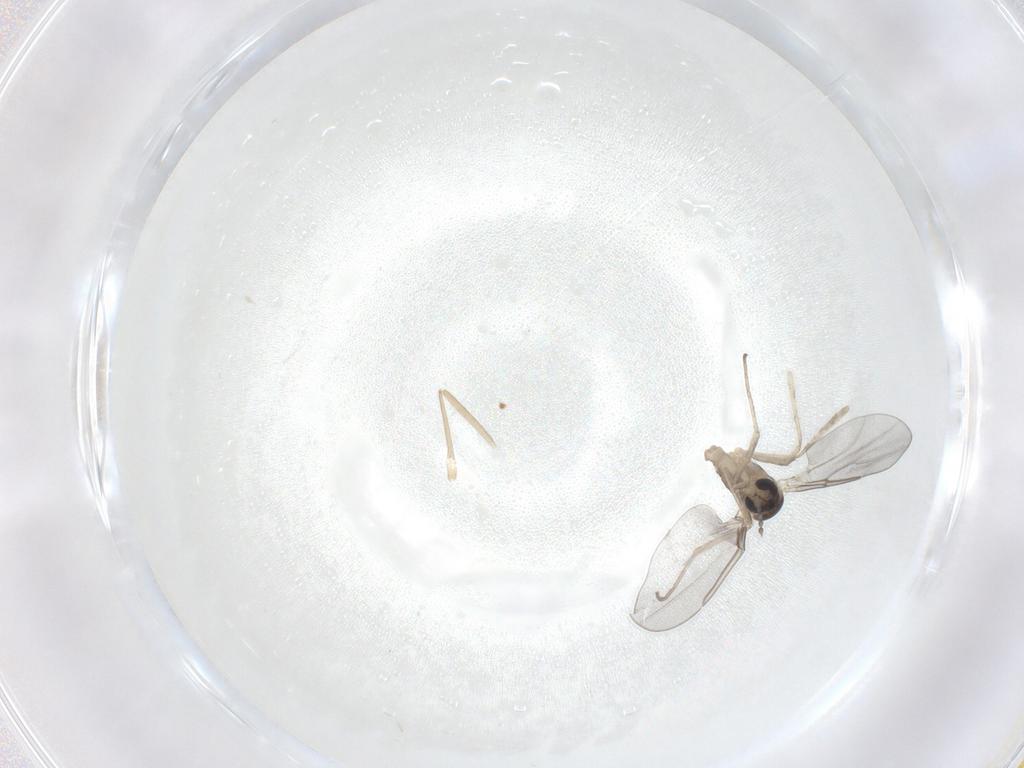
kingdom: Animalia
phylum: Arthropoda
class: Insecta
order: Diptera
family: Cecidomyiidae
